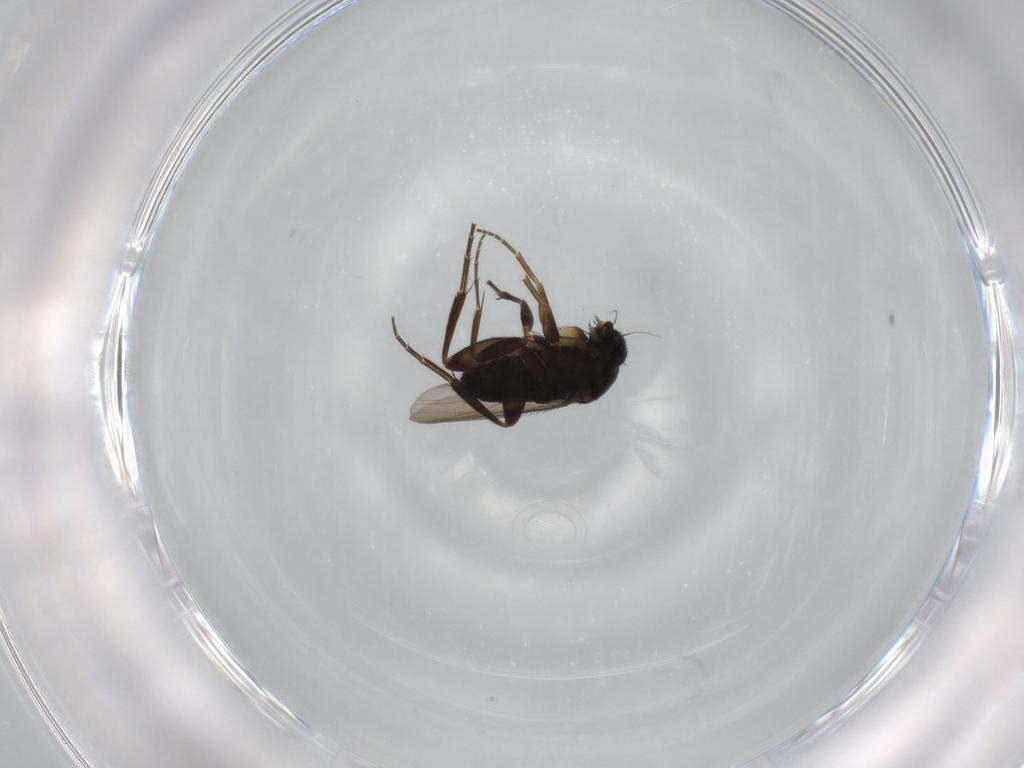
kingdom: Animalia
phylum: Arthropoda
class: Insecta
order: Diptera
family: Phoridae
